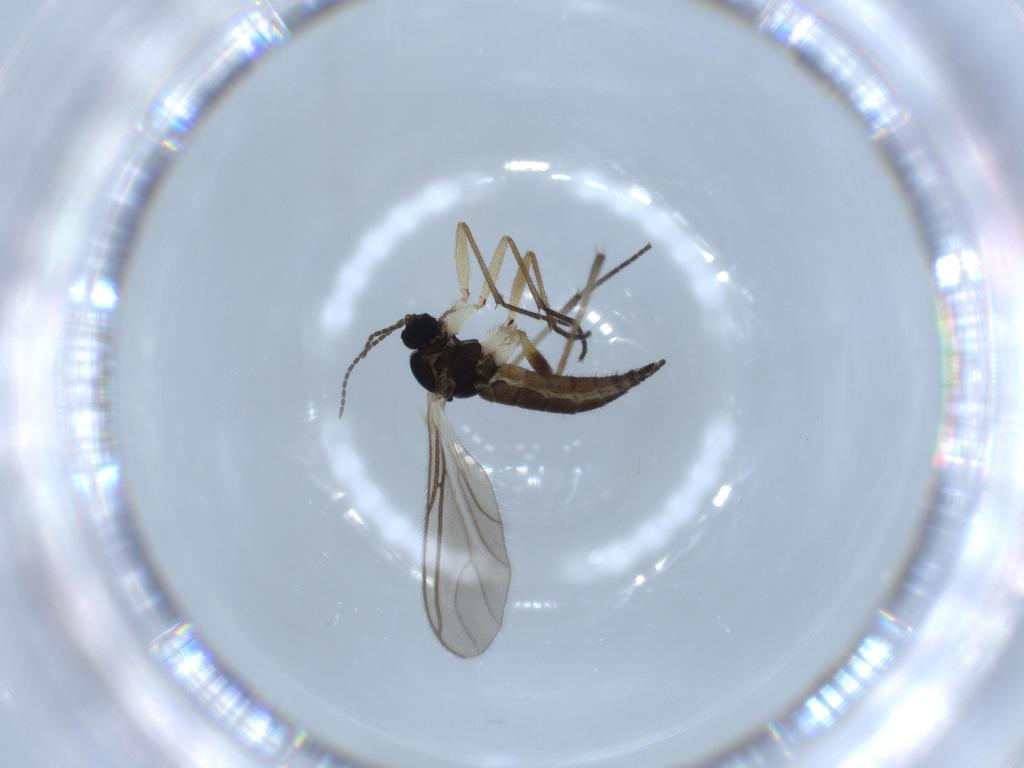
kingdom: Animalia
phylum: Arthropoda
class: Insecta
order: Diptera
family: Sciaridae
